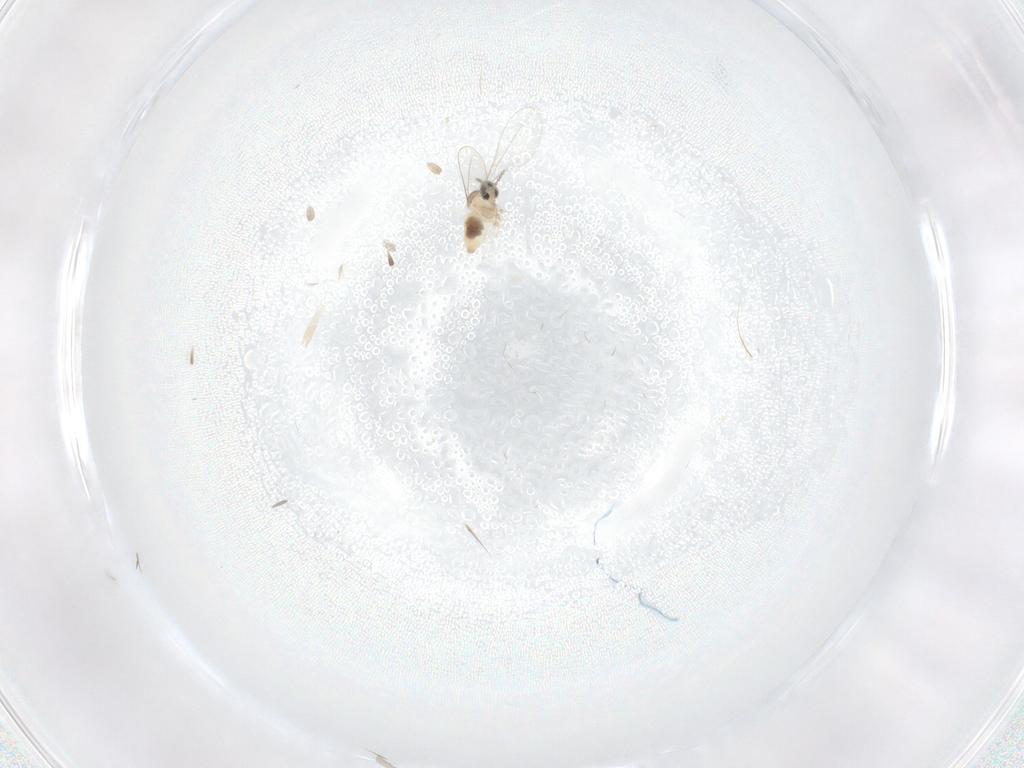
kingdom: Animalia
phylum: Arthropoda
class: Insecta
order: Diptera
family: Cecidomyiidae
